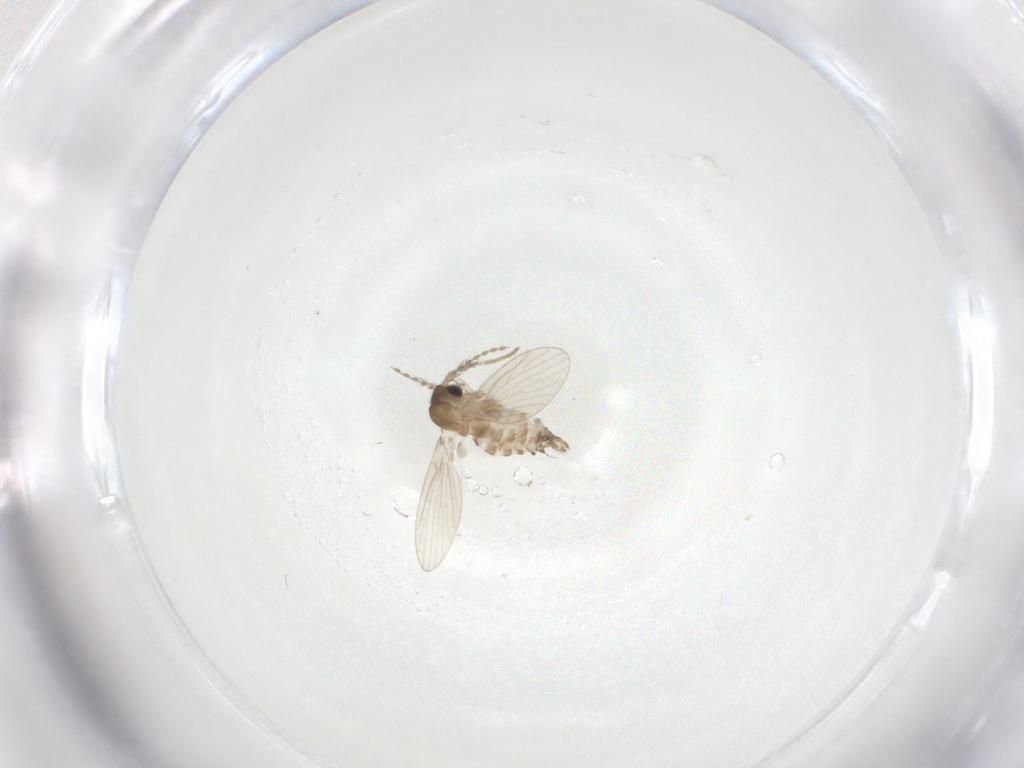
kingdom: Animalia
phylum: Arthropoda
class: Insecta
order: Diptera
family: Psychodidae
